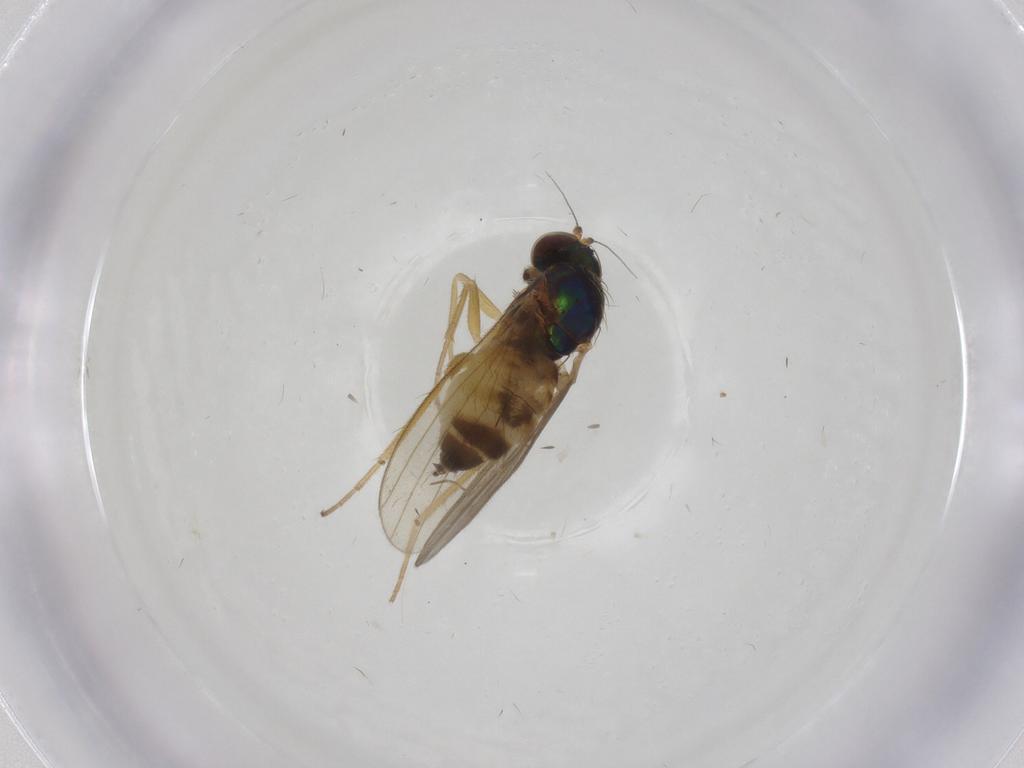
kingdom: Animalia
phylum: Arthropoda
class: Insecta
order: Diptera
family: Dolichopodidae
